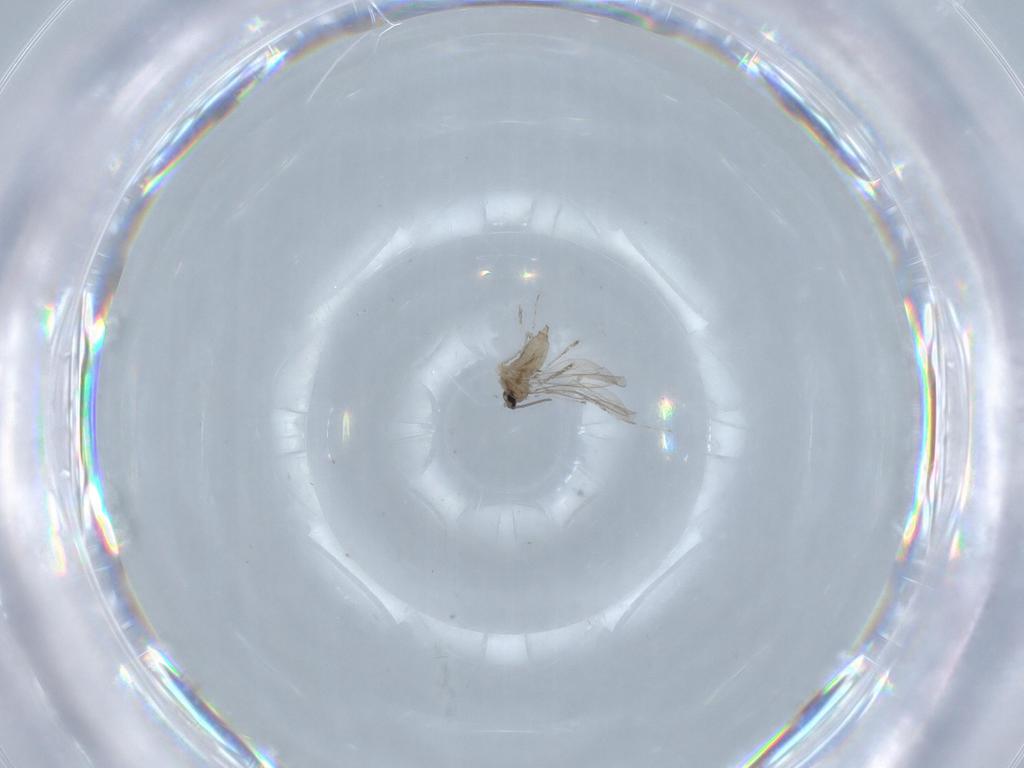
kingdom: Animalia
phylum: Arthropoda
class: Insecta
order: Diptera
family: Cecidomyiidae
